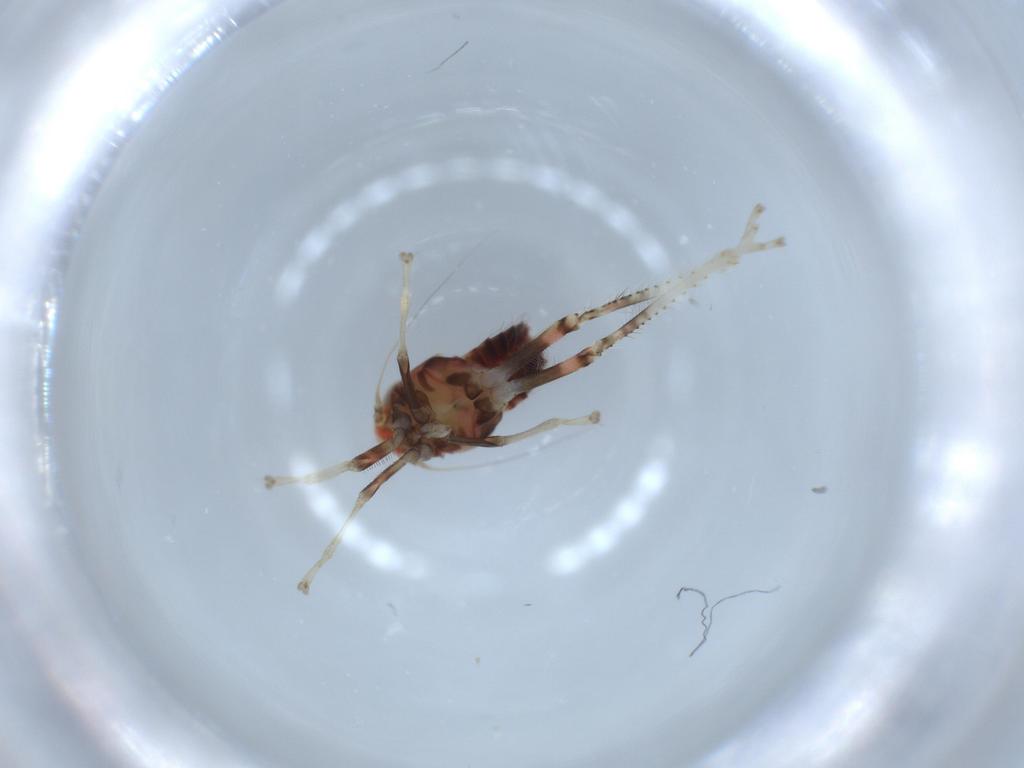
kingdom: Animalia
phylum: Arthropoda
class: Insecta
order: Hemiptera
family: Cicadellidae
